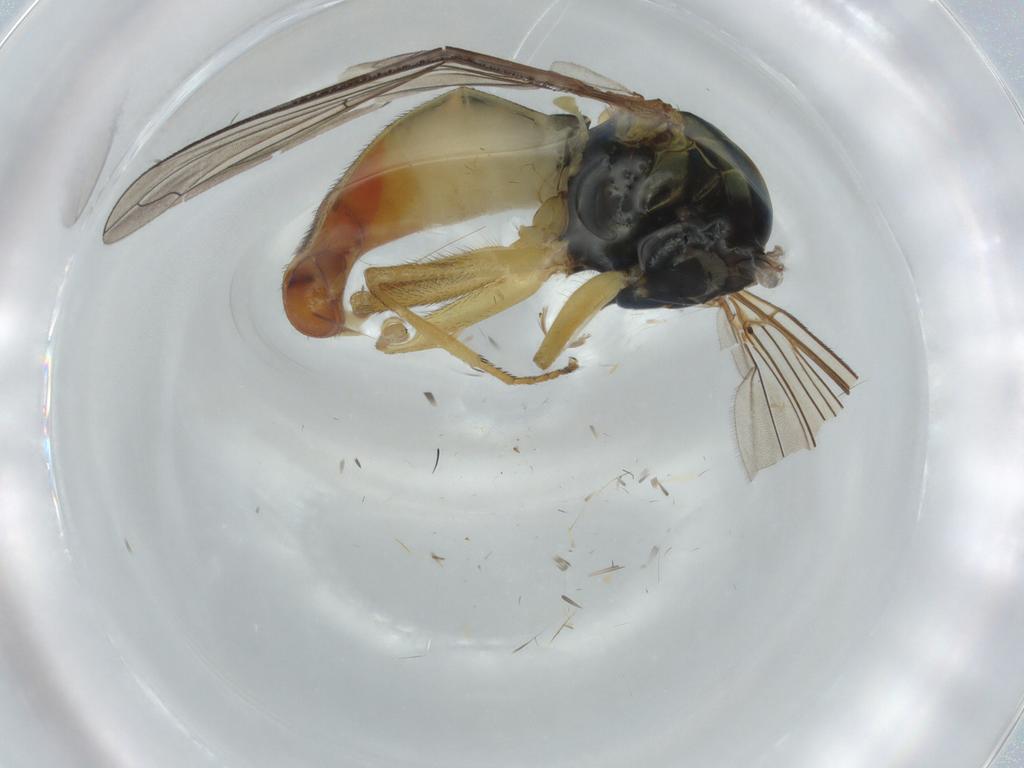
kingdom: Animalia
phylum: Arthropoda
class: Insecta
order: Diptera
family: Syrphidae
